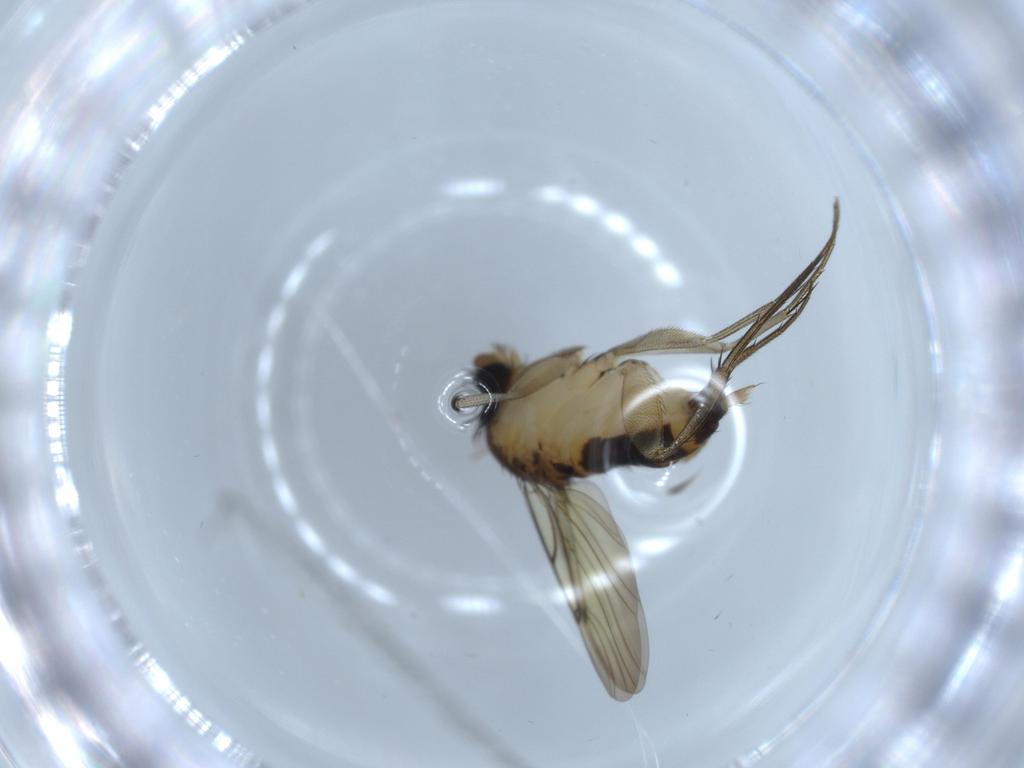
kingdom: Animalia
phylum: Arthropoda
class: Insecta
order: Diptera
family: Phoridae
